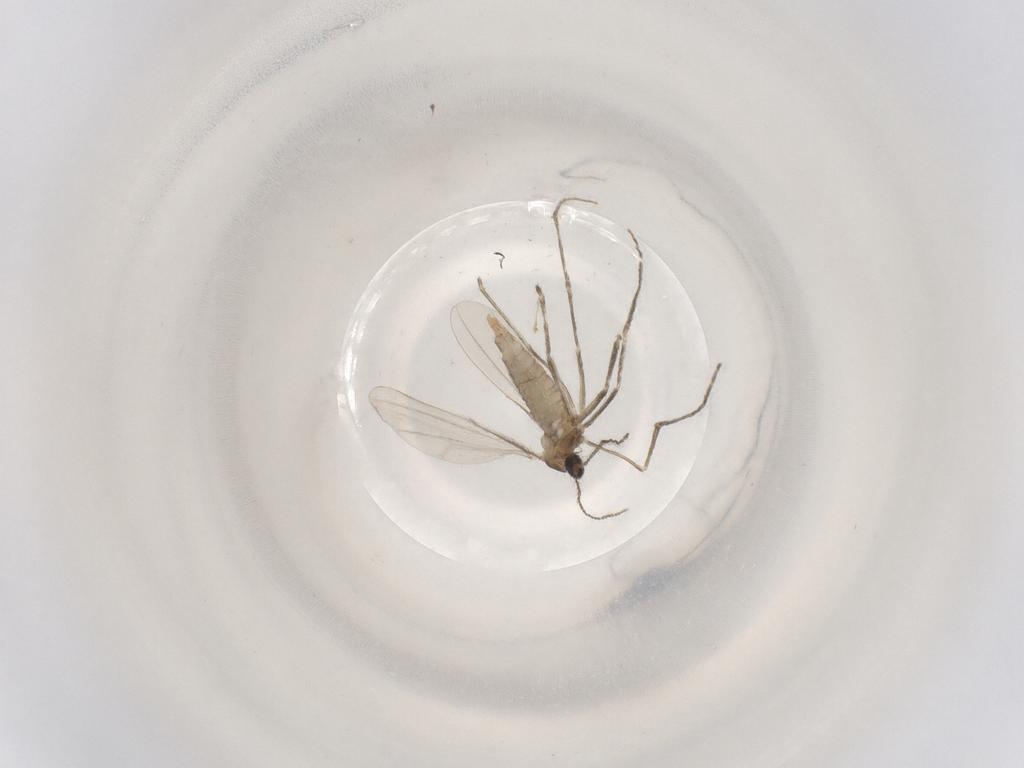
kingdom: Animalia
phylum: Arthropoda
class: Insecta
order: Diptera
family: Cecidomyiidae
